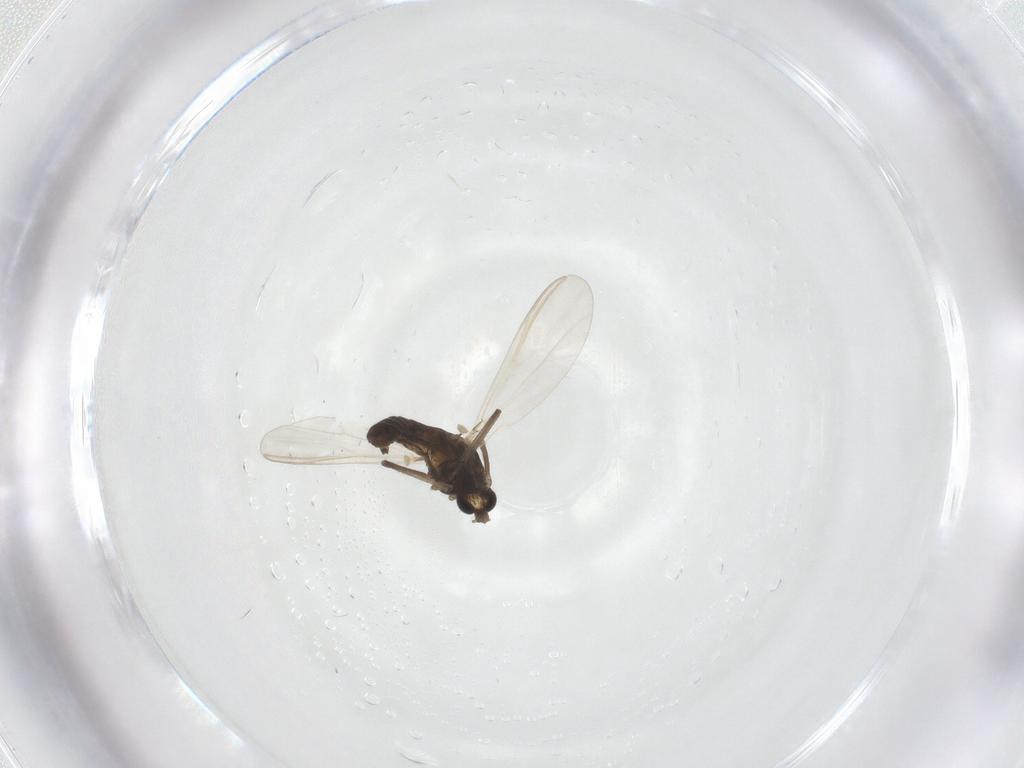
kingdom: Animalia
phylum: Arthropoda
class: Insecta
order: Diptera
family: Chironomidae
